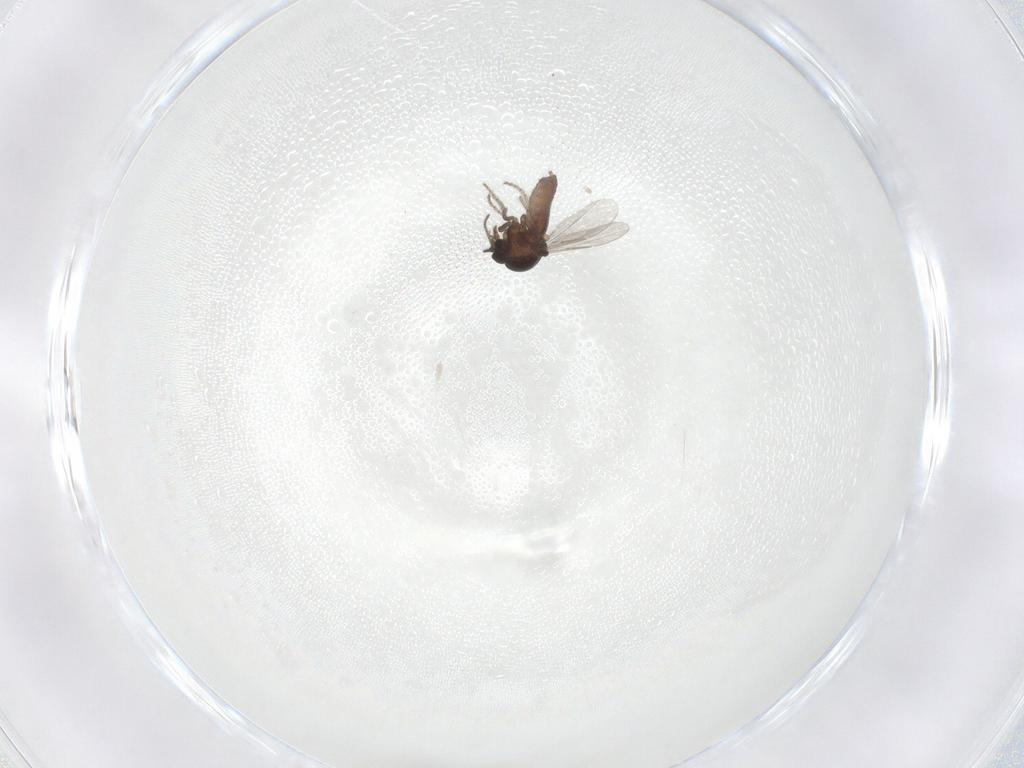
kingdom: Animalia
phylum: Arthropoda
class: Insecta
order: Diptera
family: Ceratopogonidae
